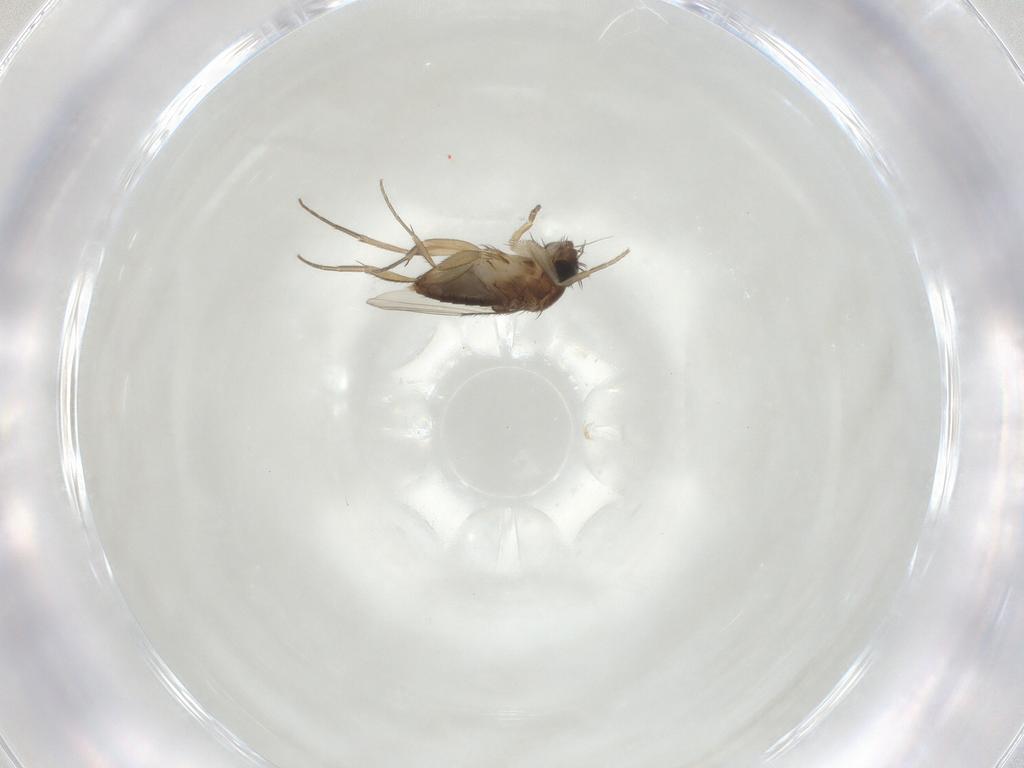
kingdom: Animalia
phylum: Arthropoda
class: Insecta
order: Diptera
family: Phoridae
